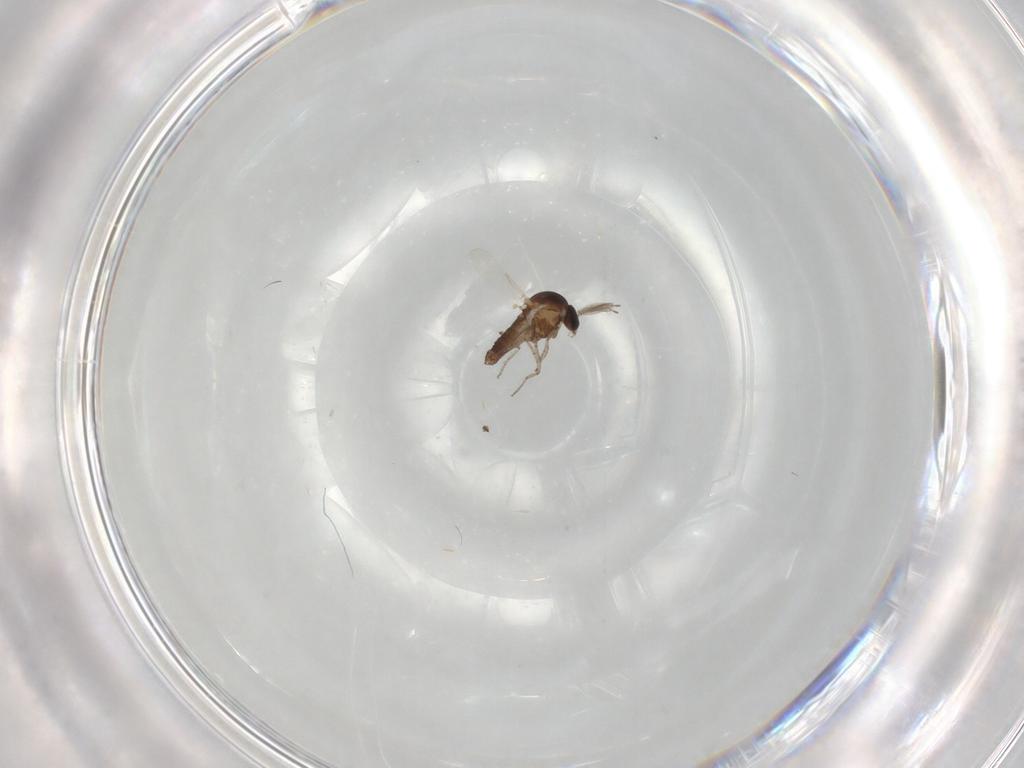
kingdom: Animalia
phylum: Arthropoda
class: Insecta
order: Diptera
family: Ceratopogonidae
